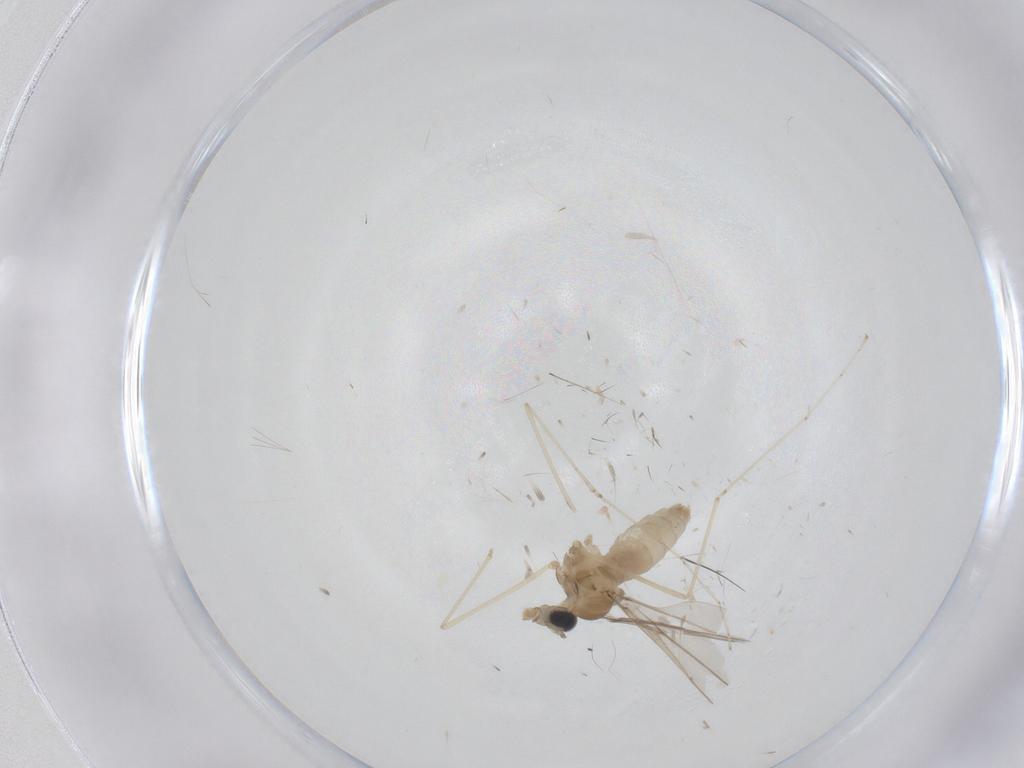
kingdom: Animalia
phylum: Arthropoda
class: Insecta
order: Diptera
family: Cecidomyiidae
